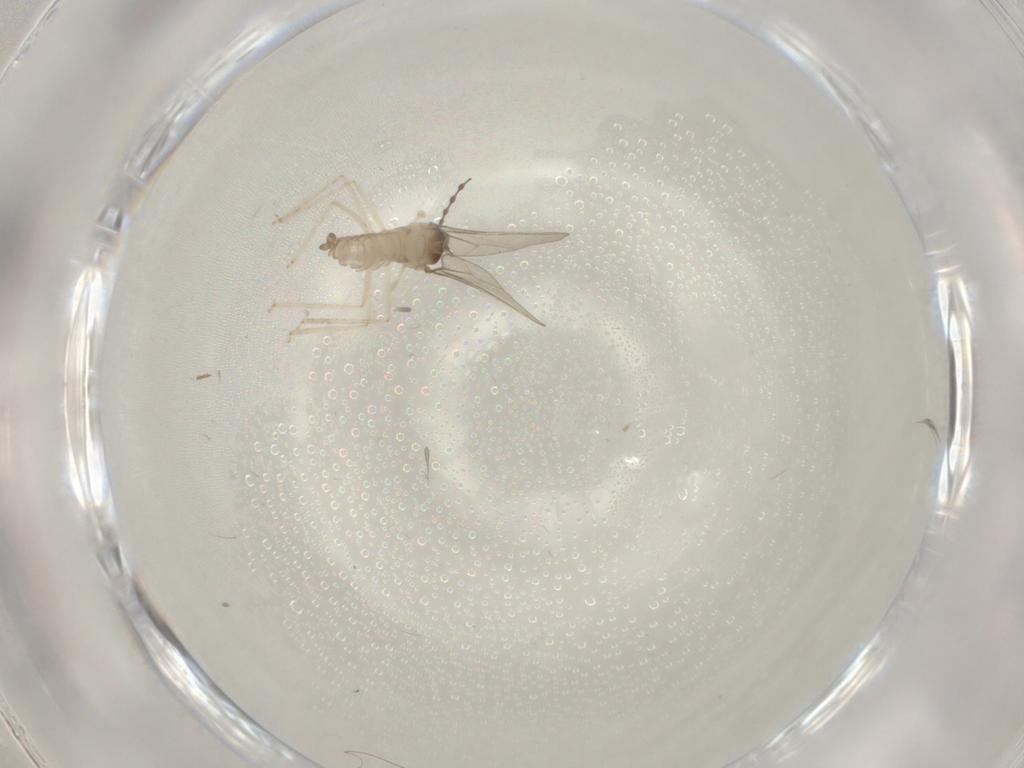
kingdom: Animalia
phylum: Arthropoda
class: Insecta
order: Diptera
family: Cecidomyiidae
